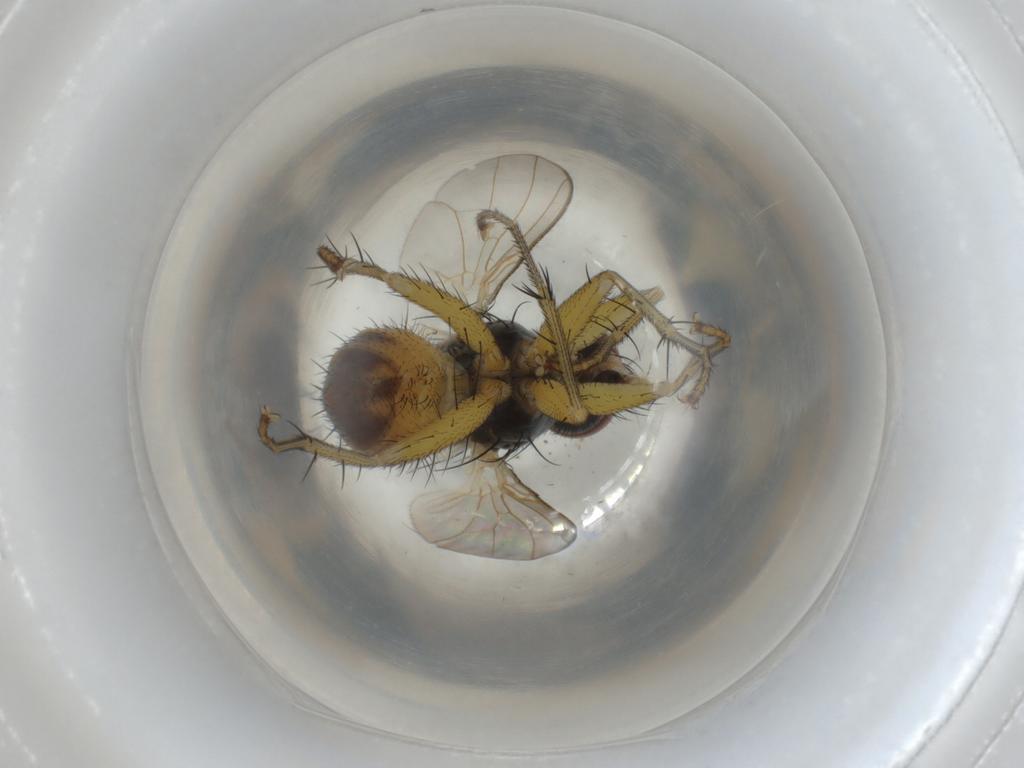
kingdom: Animalia
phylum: Arthropoda
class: Insecta
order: Diptera
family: Muscidae
